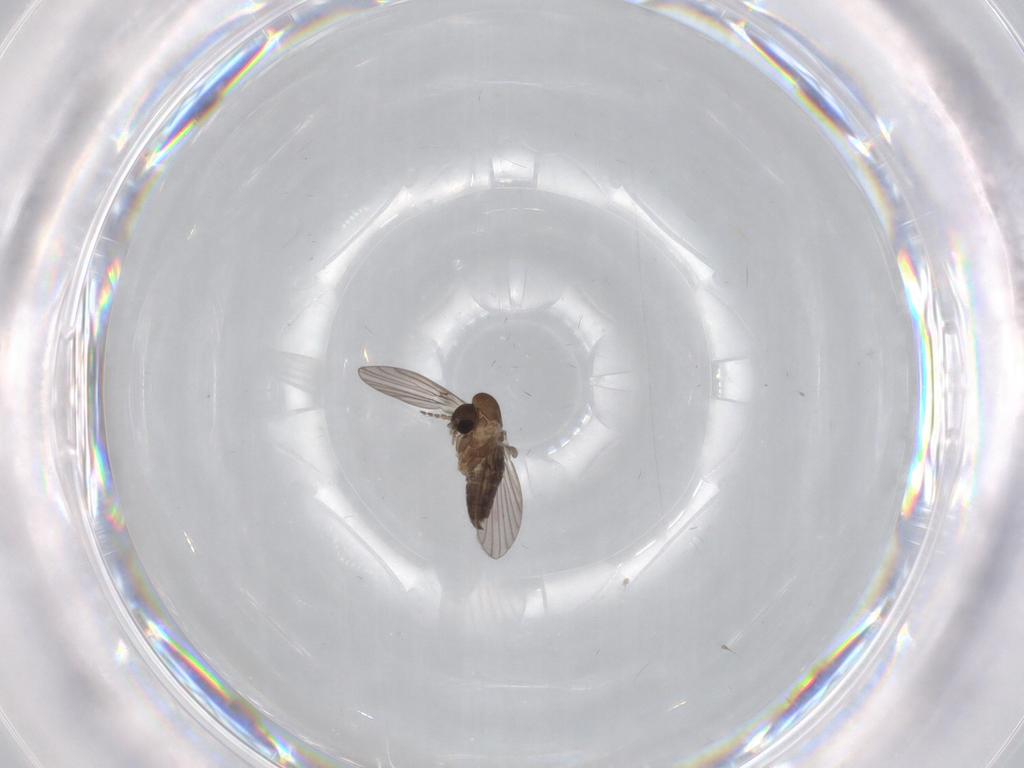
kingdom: Animalia
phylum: Arthropoda
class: Insecta
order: Diptera
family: Psychodidae
